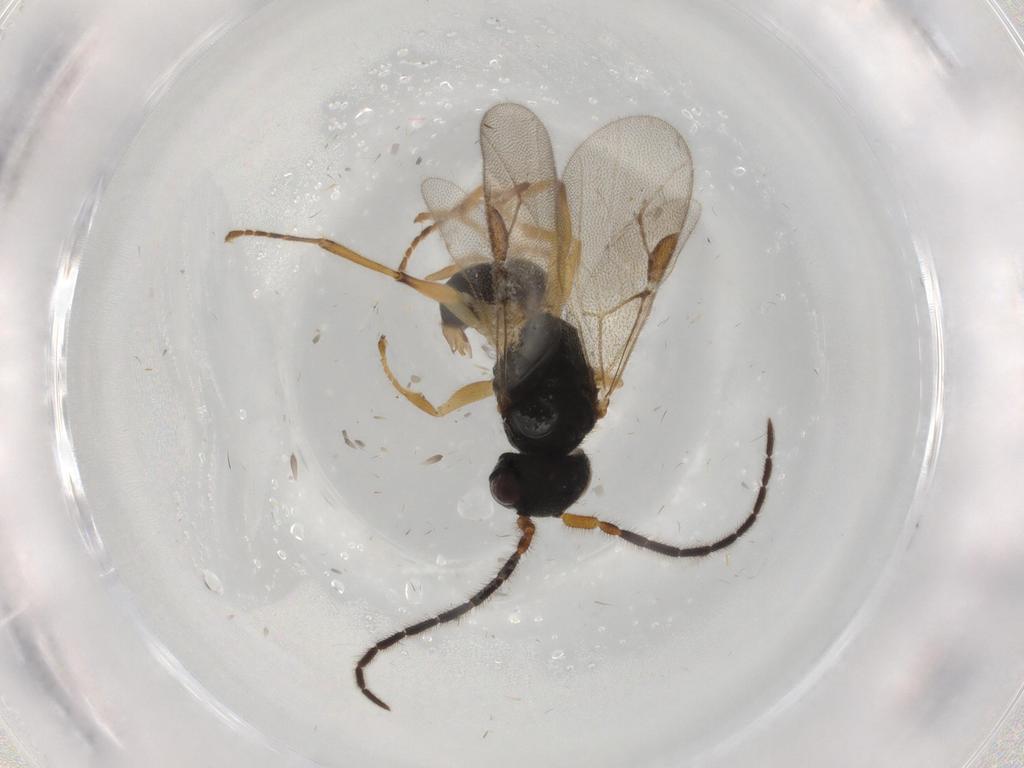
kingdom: Animalia
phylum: Arthropoda
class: Insecta
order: Hymenoptera
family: Dryinidae
